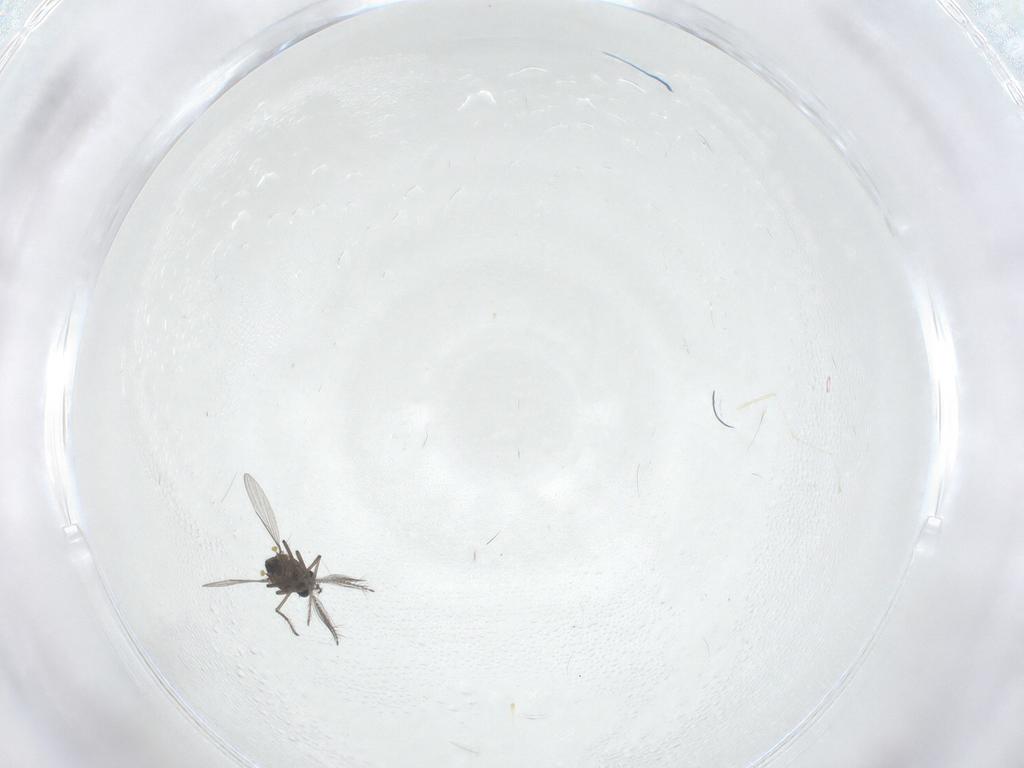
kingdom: Animalia
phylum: Arthropoda
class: Insecta
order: Diptera
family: Ceratopogonidae
